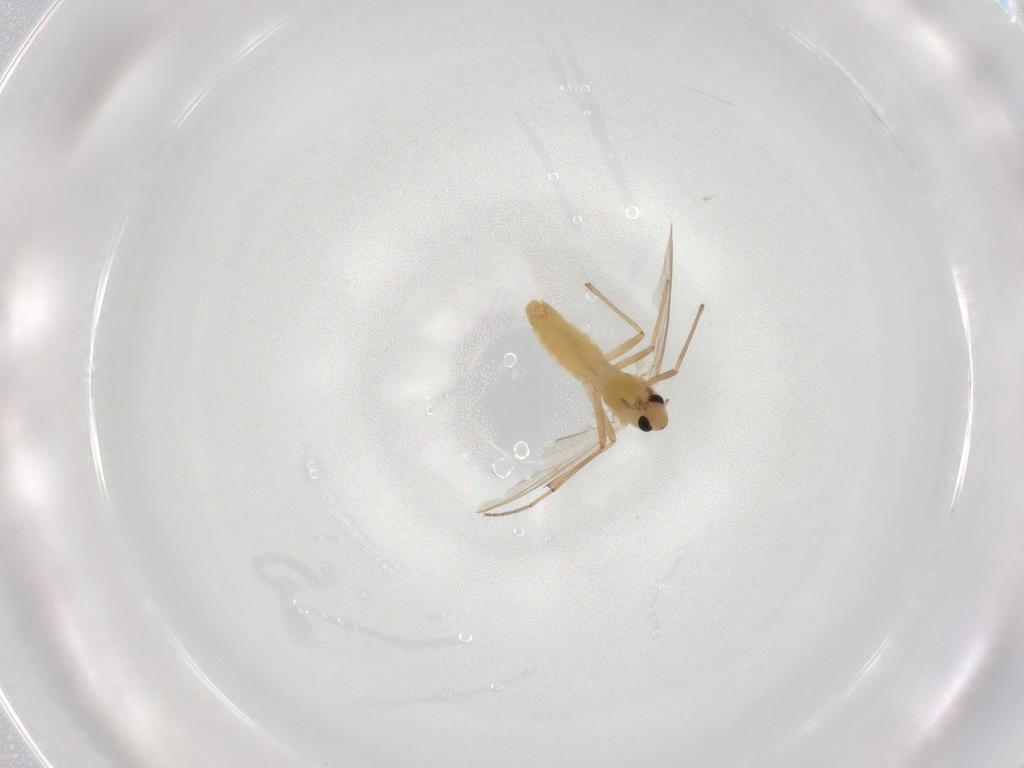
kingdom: Animalia
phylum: Arthropoda
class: Insecta
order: Diptera
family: Chironomidae
